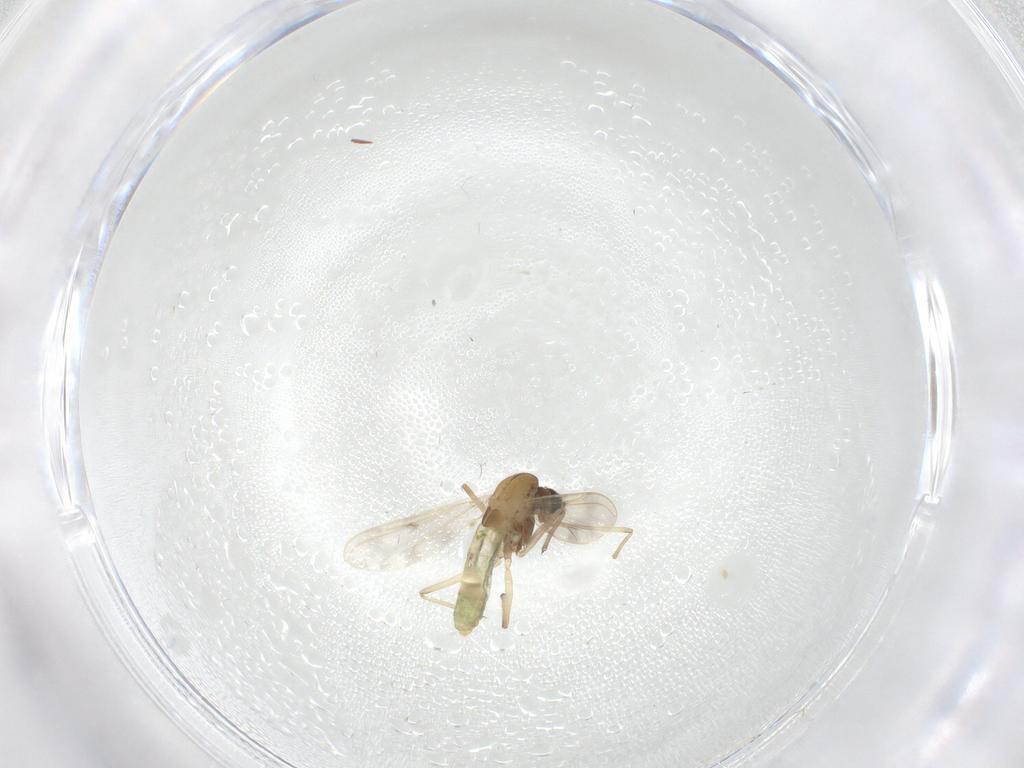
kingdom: Animalia
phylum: Arthropoda
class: Insecta
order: Diptera
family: Chironomidae
